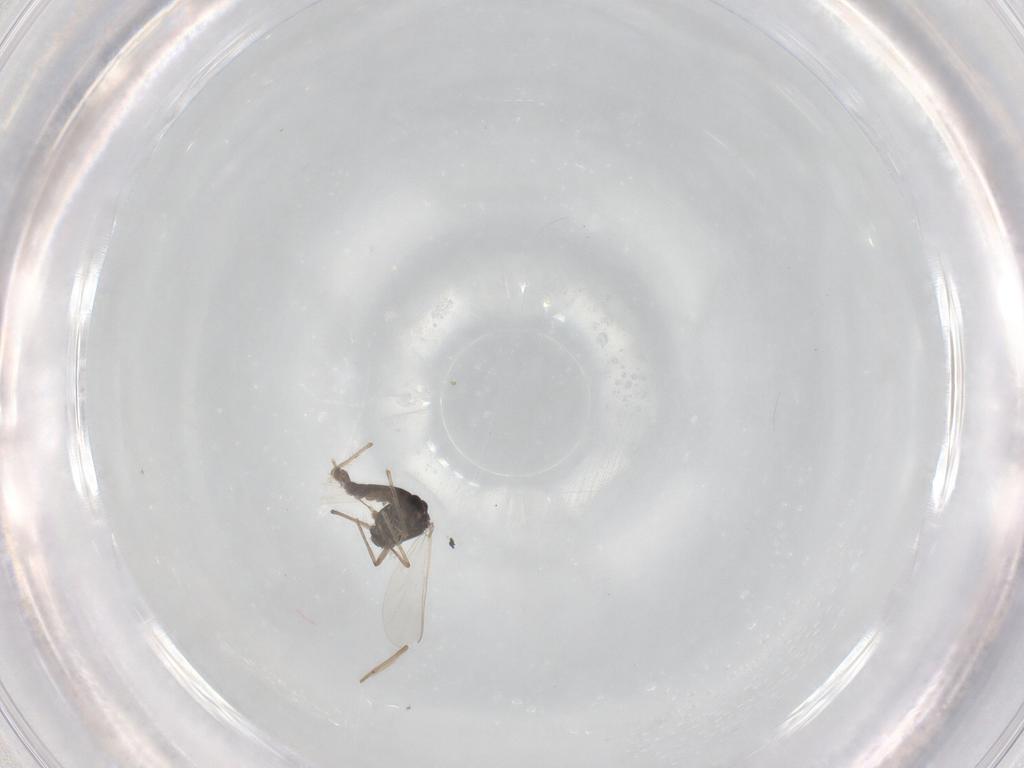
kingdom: Animalia
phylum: Arthropoda
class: Insecta
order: Diptera
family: Chironomidae
